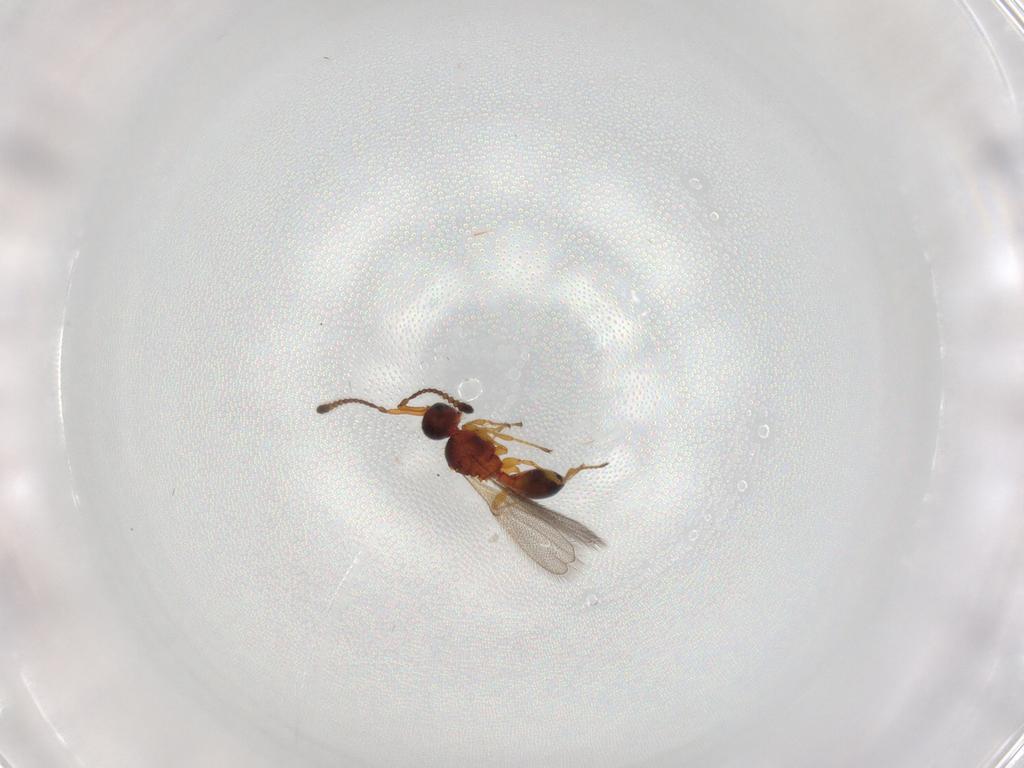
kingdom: Animalia
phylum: Arthropoda
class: Insecta
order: Hymenoptera
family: Diapriidae
